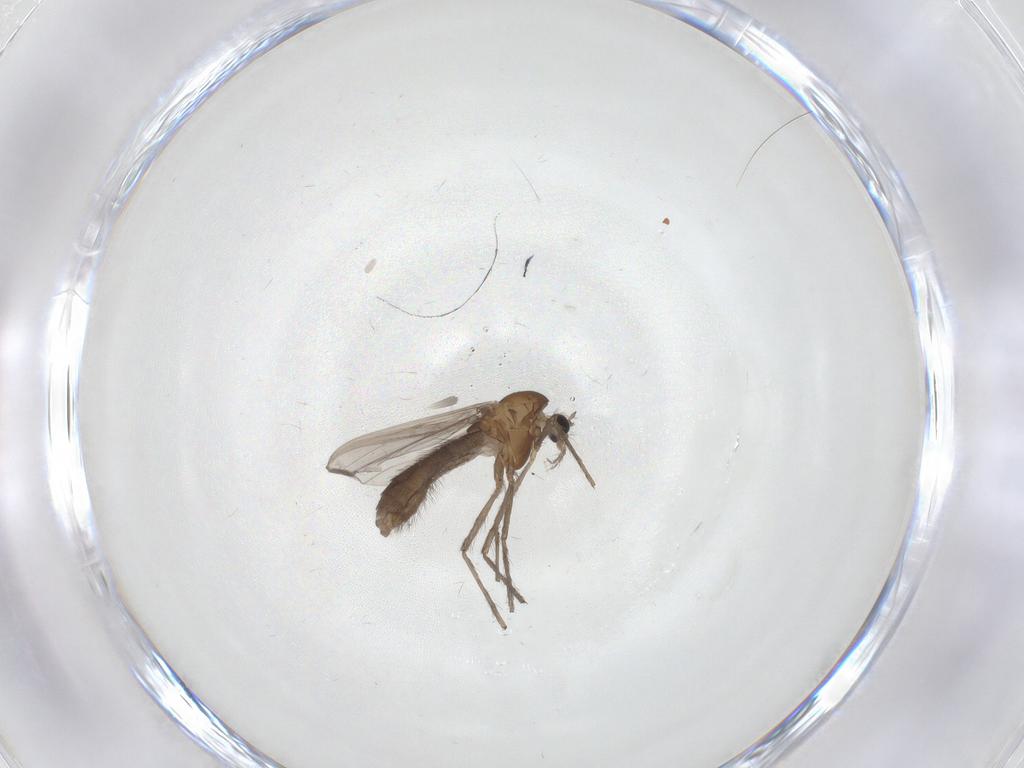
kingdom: Animalia
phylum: Arthropoda
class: Insecta
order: Diptera
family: Chironomidae
